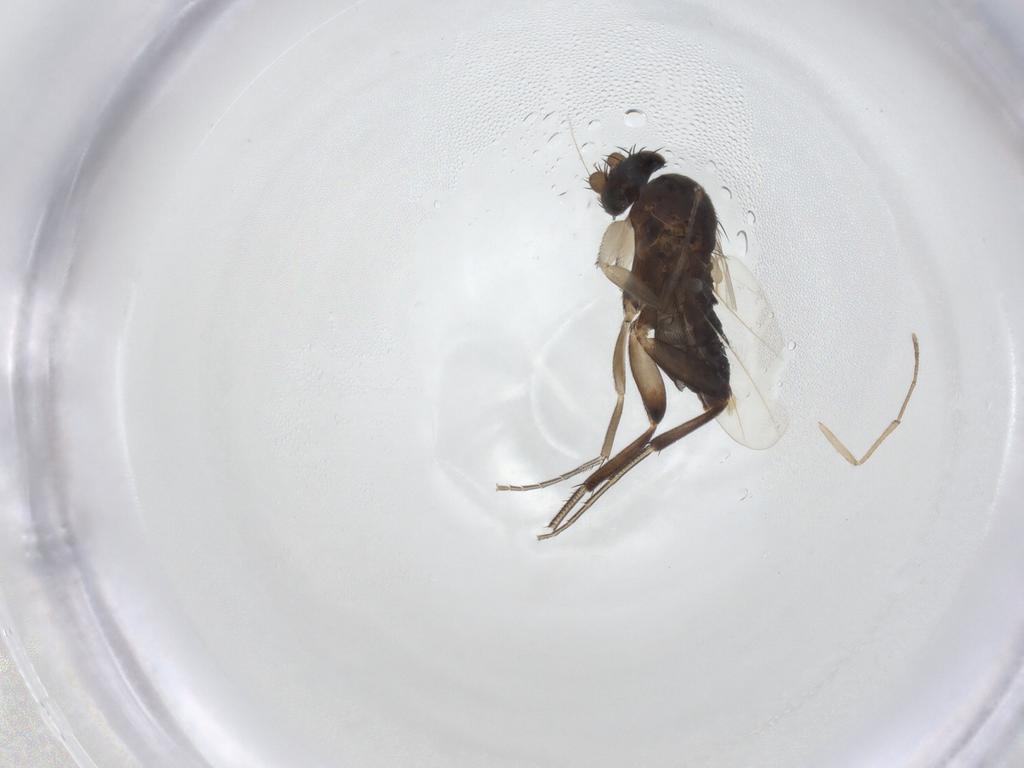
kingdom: Animalia
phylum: Arthropoda
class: Insecta
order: Diptera
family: Phoridae
